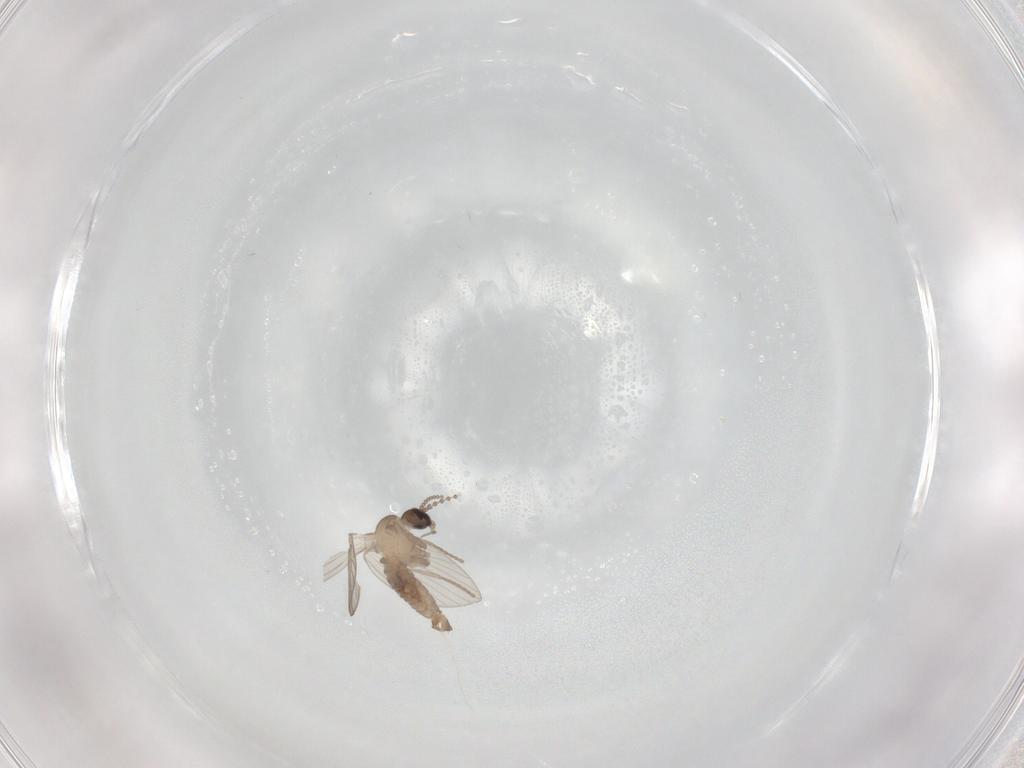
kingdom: Animalia
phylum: Arthropoda
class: Insecta
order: Diptera
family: Psychodidae
